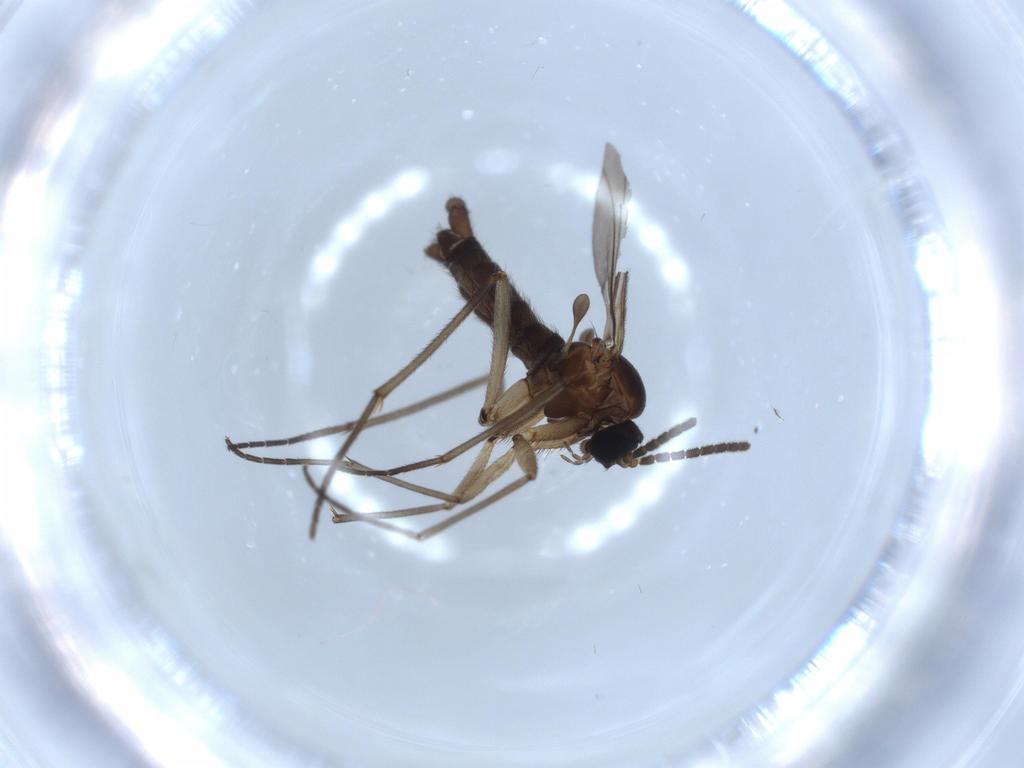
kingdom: Animalia
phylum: Arthropoda
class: Insecta
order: Diptera
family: Sciaridae
